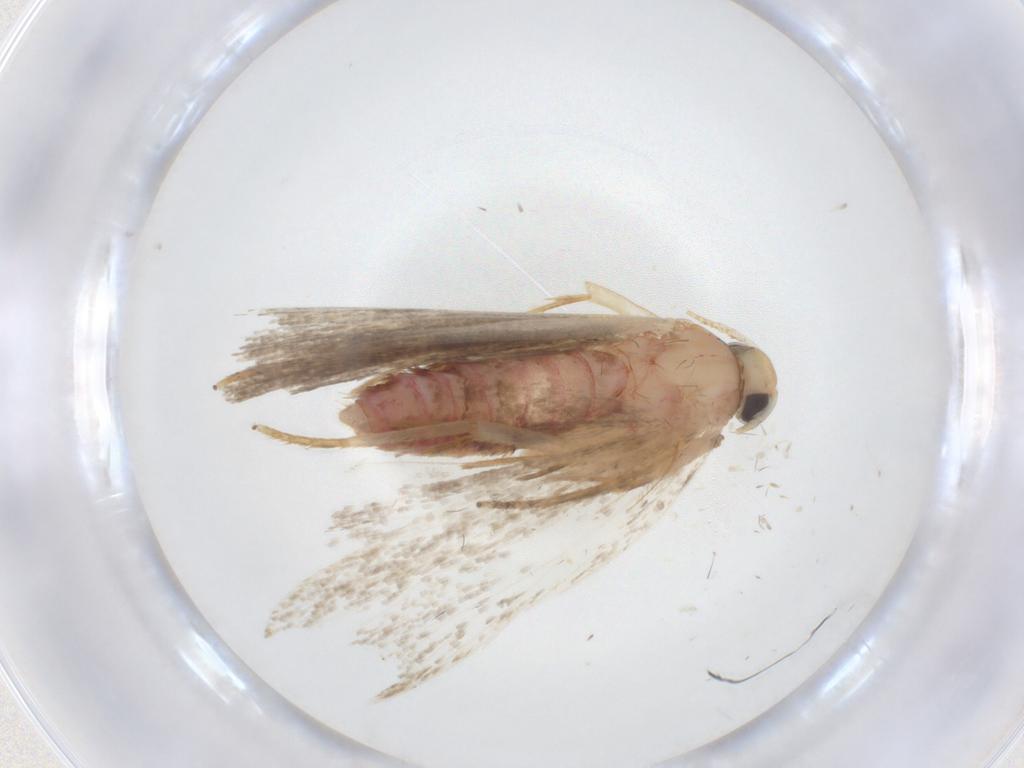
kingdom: Animalia
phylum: Arthropoda
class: Insecta
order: Lepidoptera
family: Autostichidae
